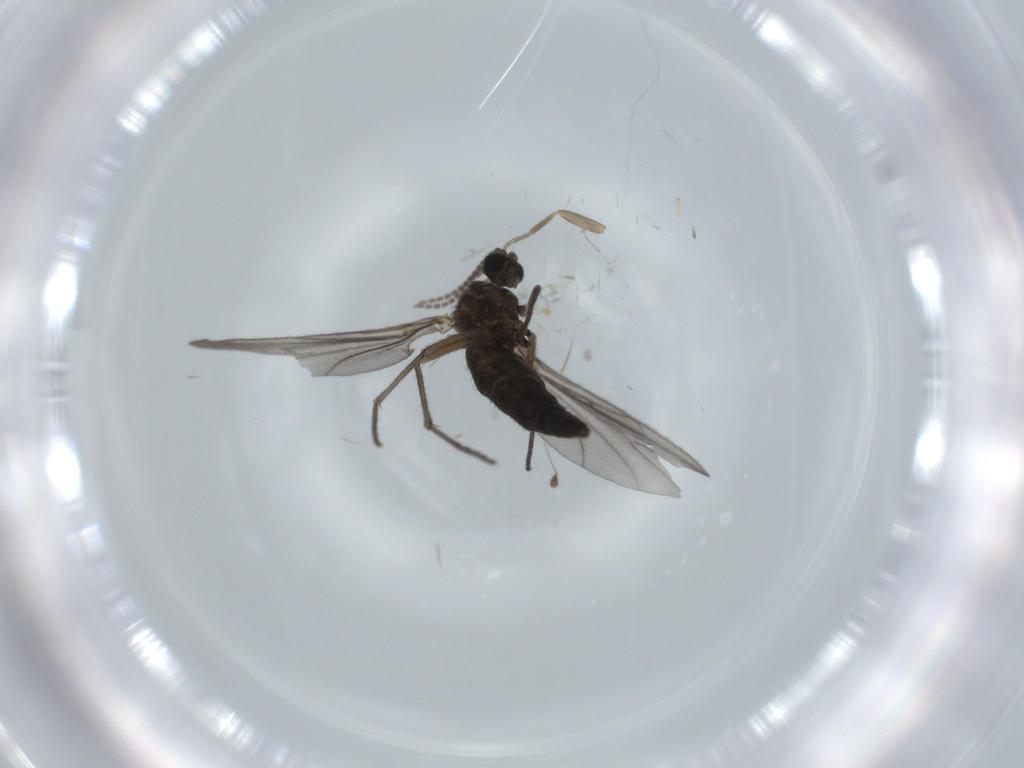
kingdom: Animalia
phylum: Arthropoda
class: Insecta
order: Diptera
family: Sciaridae
